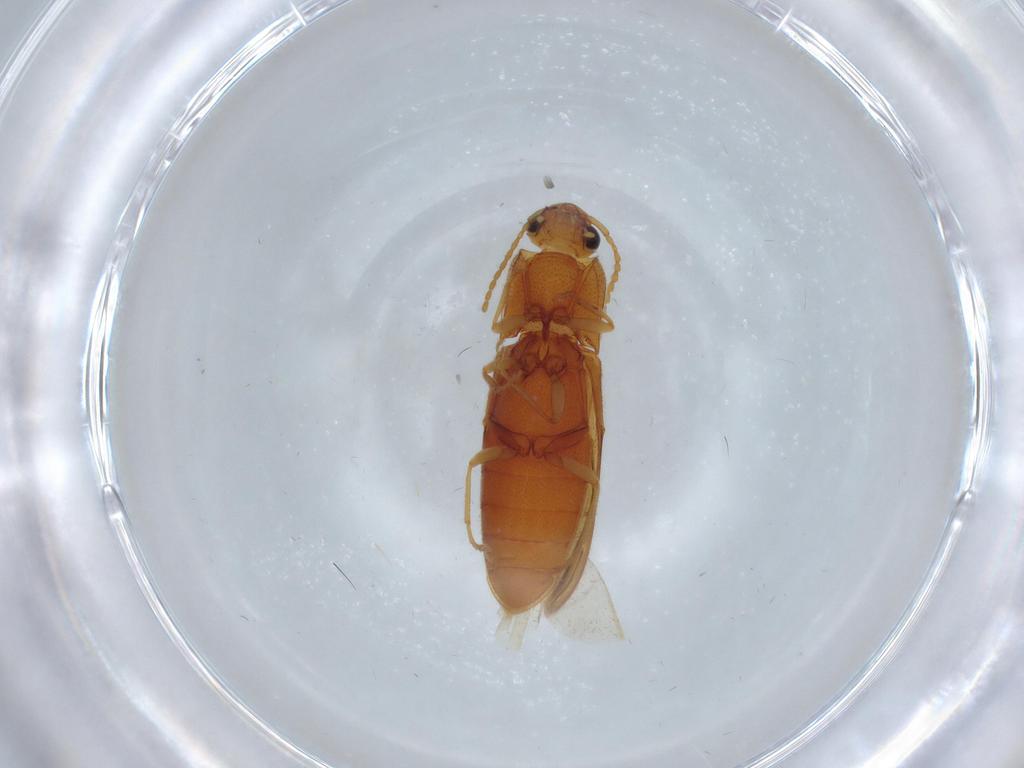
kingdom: Animalia
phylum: Arthropoda
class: Insecta
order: Coleoptera
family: Elateridae
